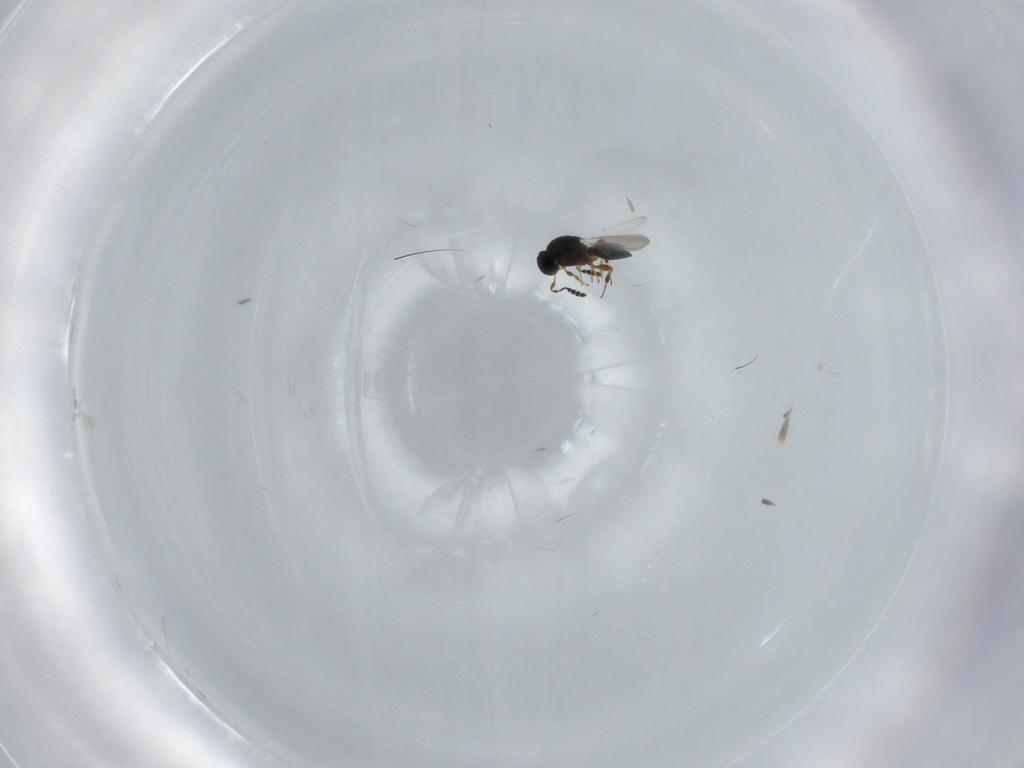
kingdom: Animalia
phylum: Arthropoda
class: Insecta
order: Hymenoptera
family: Platygastridae
